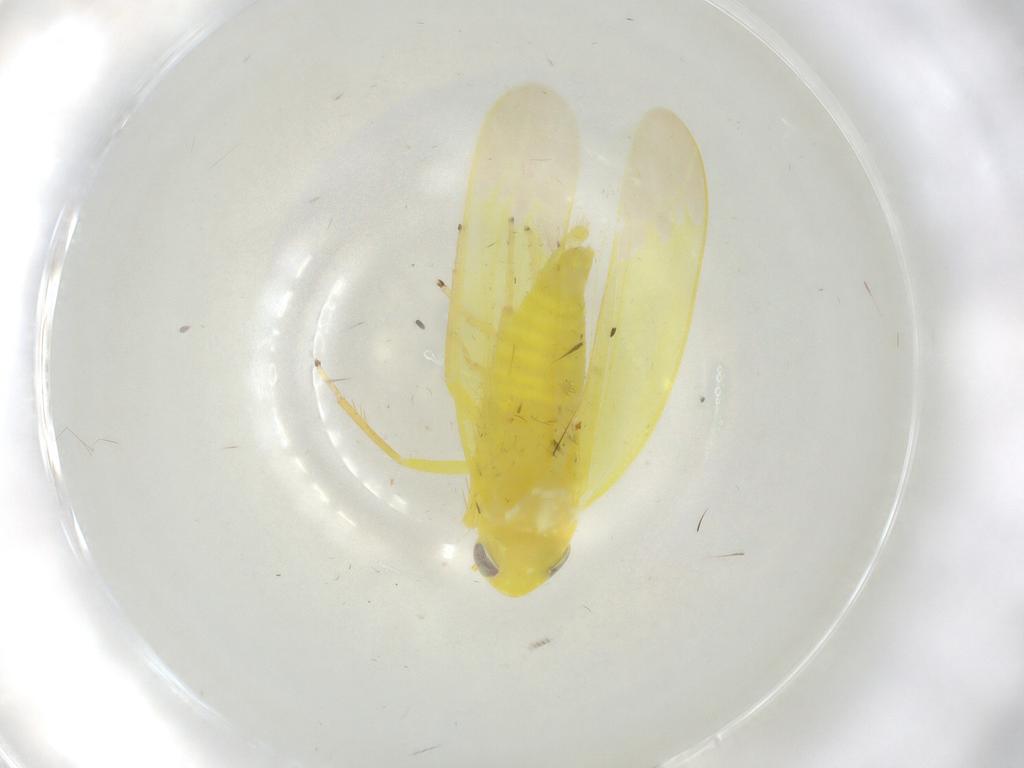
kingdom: Animalia
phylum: Arthropoda
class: Insecta
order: Hemiptera
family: Cicadellidae
